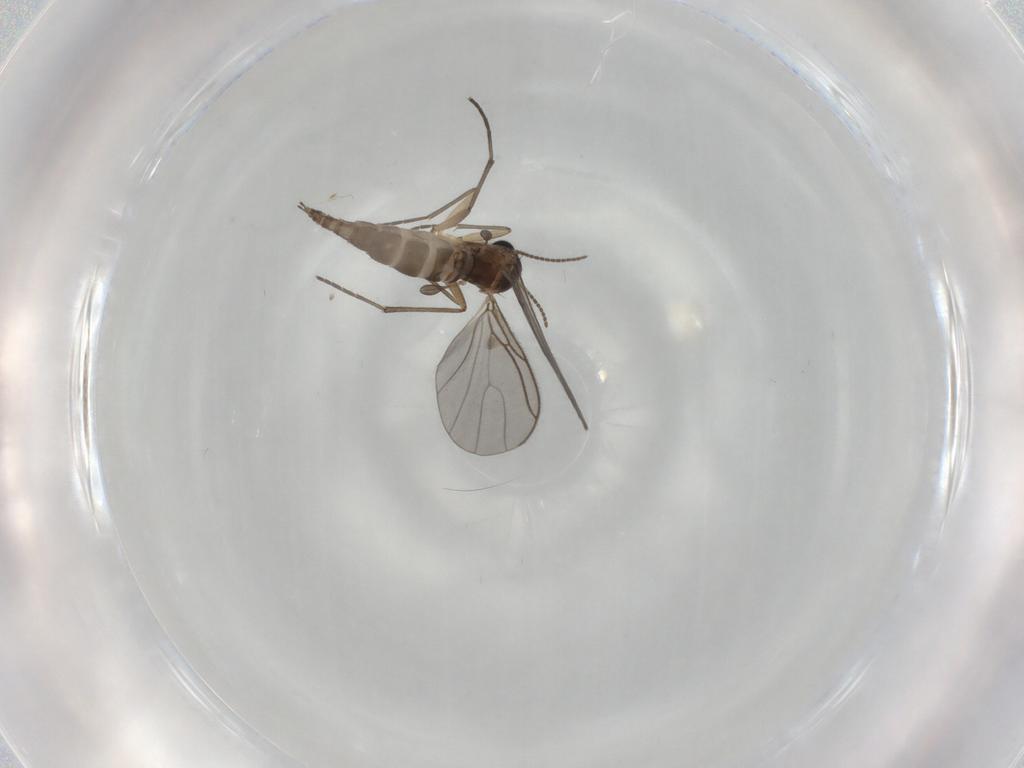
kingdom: Animalia
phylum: Arthropoda
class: Insecta
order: Diptera
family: Sciaridae
